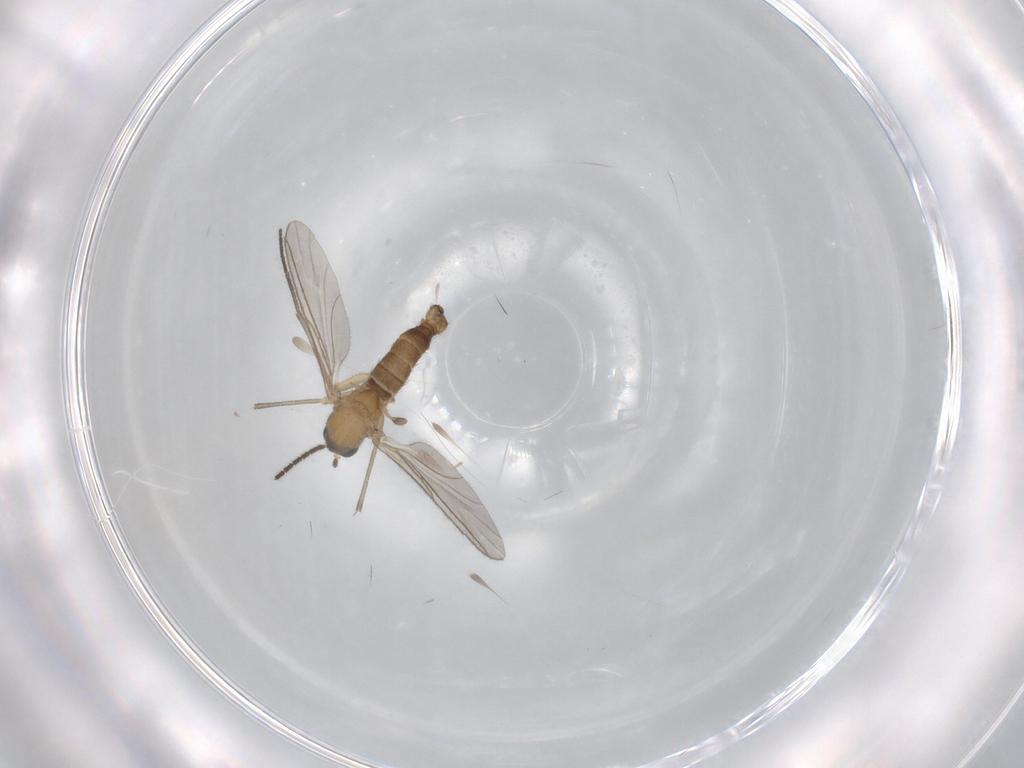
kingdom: Animalia
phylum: Arthropoda
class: Insecta
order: Diptera
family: Sciaridae
